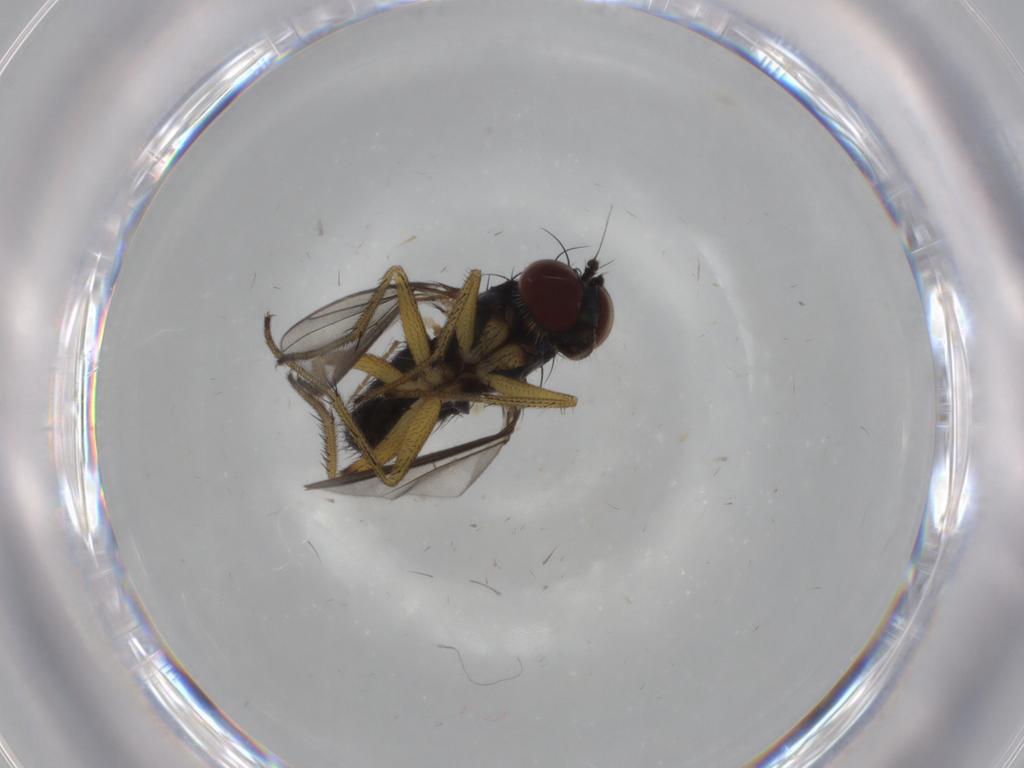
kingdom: Animalia
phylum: Arthropoda
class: Insecta
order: Diptera
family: Dolichopodidae
